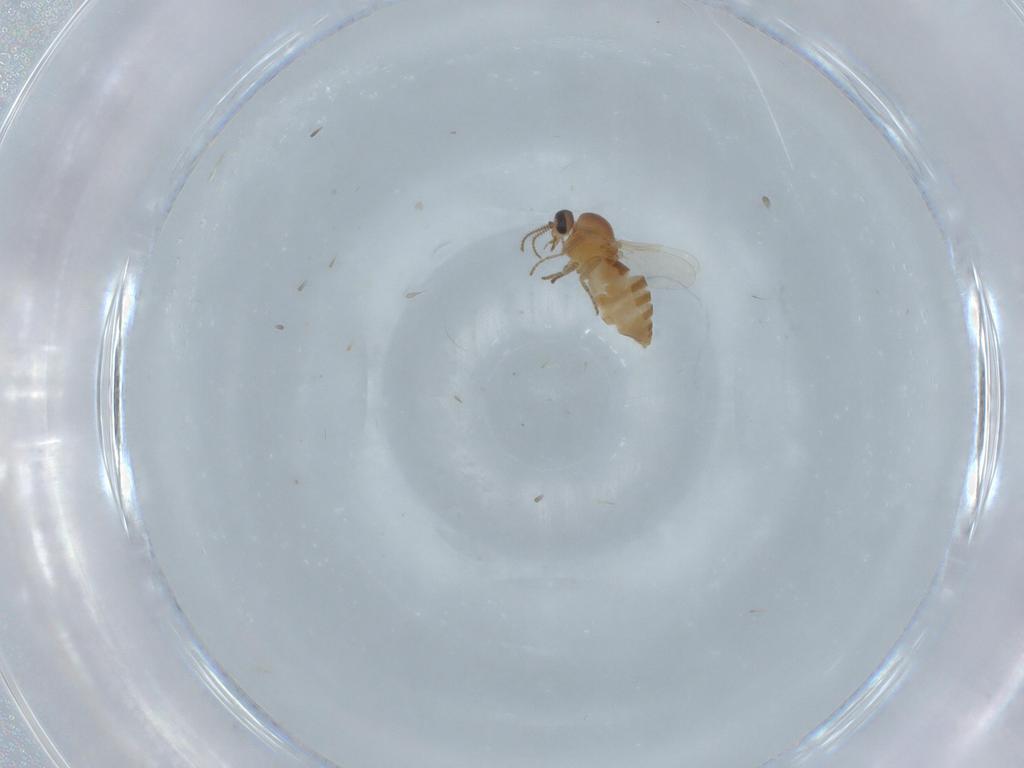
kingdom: Animalia
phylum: Arthropoda
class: Insecta
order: Diptera
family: Ceratopogonidae
